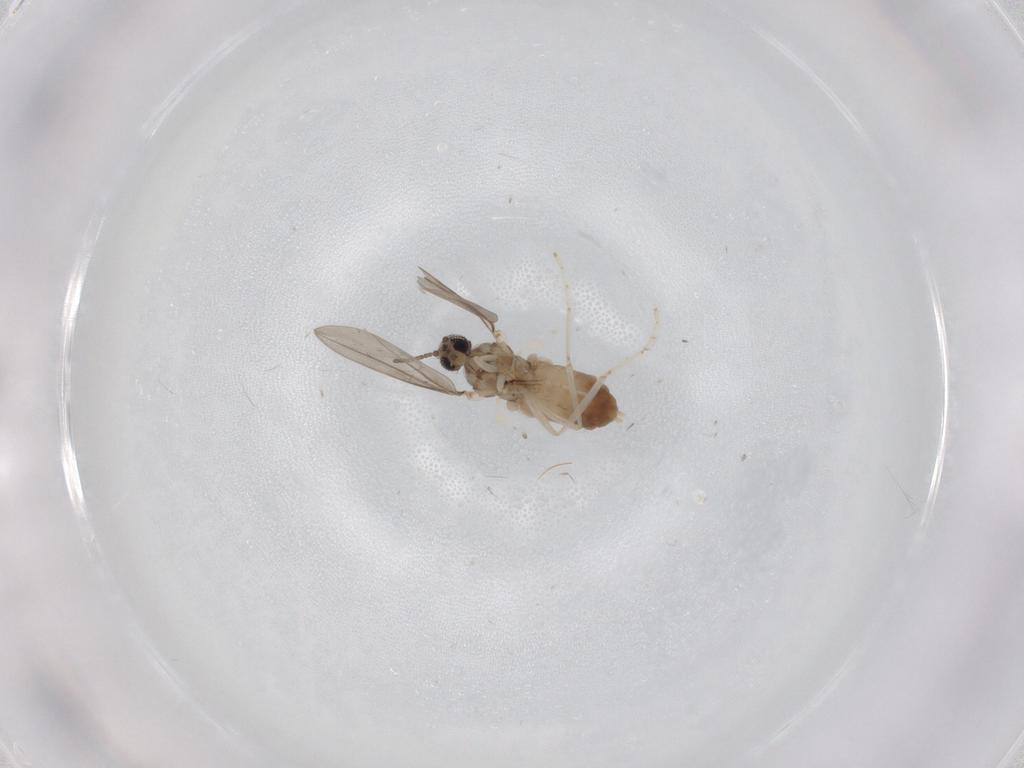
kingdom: Animalia
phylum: Arthropoda
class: Insecta
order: Diptera
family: Cecidomyiidae
